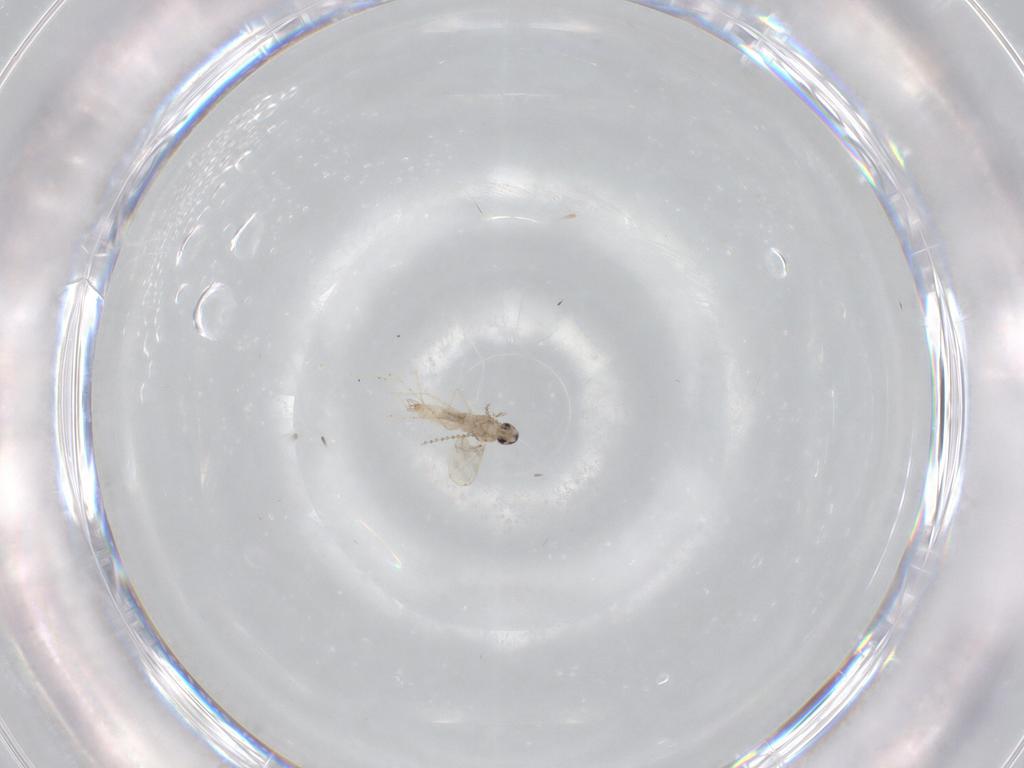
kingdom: Animalia
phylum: Arthropoda
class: Insecta
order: Diptera
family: Cecidomyiidae
